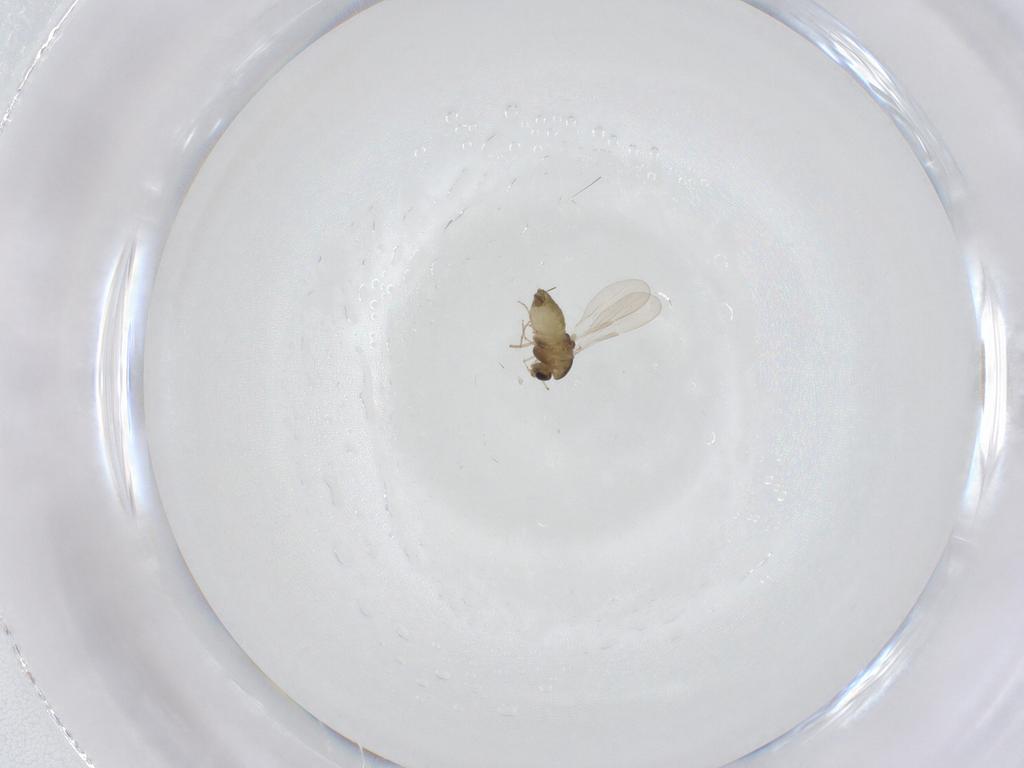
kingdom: Animalia
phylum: Arthropoda
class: Insecta
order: Diptera
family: Chironomidae
